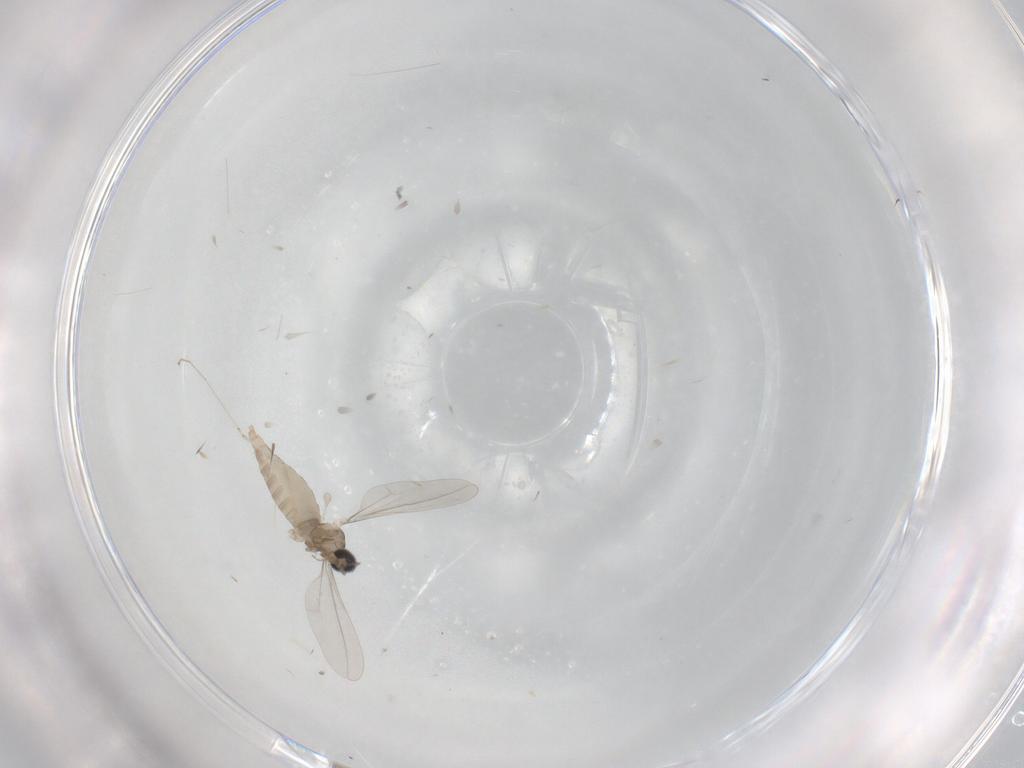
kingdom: Animalia
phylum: Arthropoda
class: Insecta
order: Diptera
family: Cecidomyiidae
